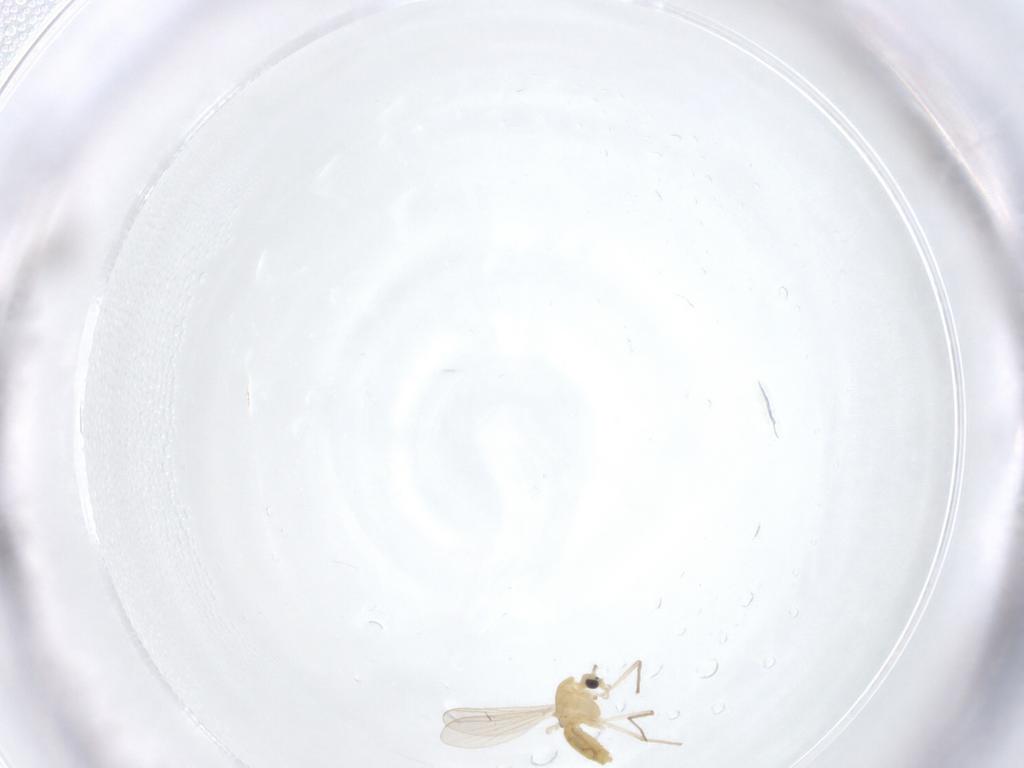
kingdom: Animalia
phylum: Arthropoda
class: Insecta
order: Diptera
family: Chironomidae
